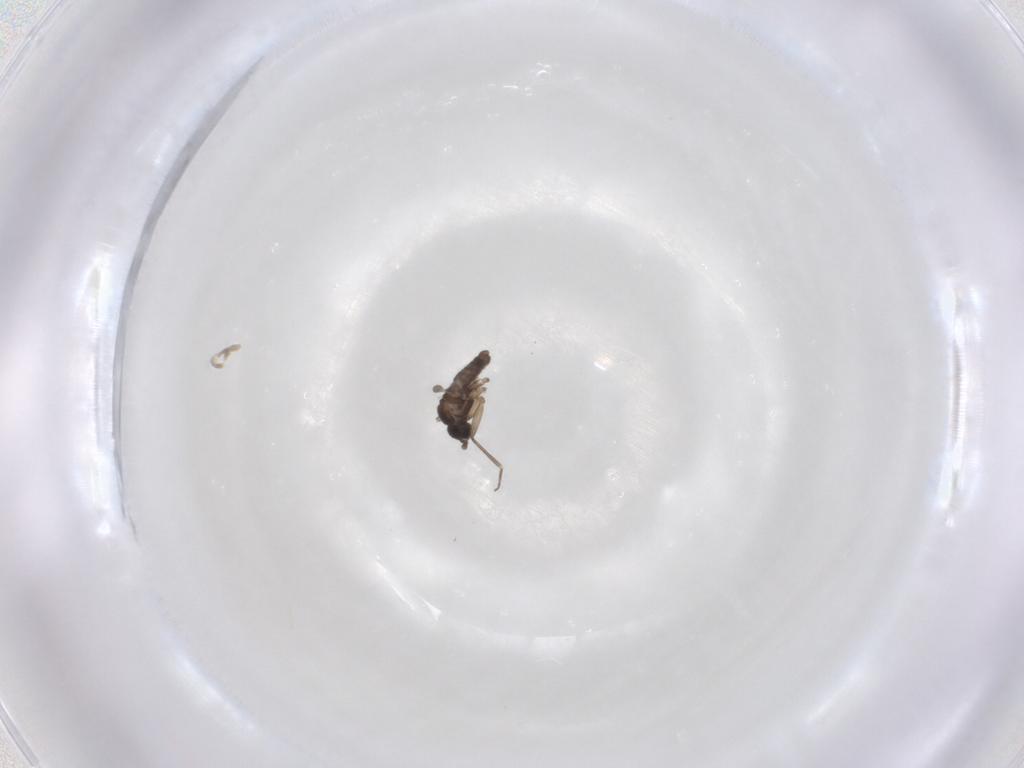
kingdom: Animalia
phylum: Arthropoda
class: Insecta
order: Diptera
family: Sciaridae
